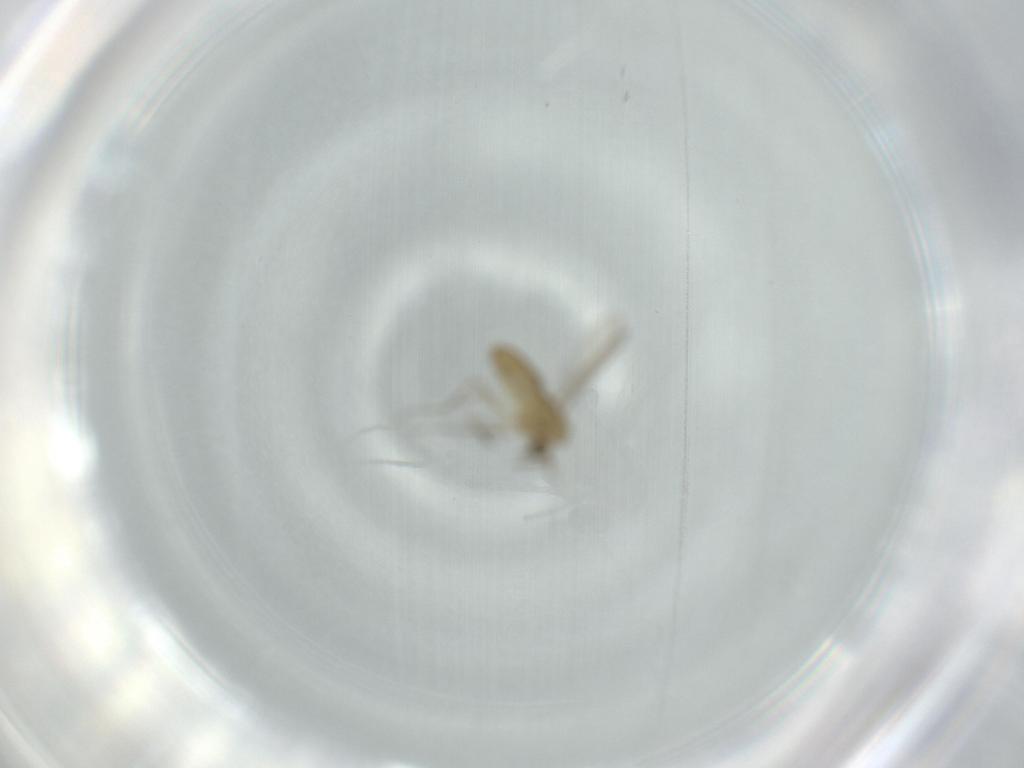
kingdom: Animalia
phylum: Arthropoda
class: Insecta
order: Diptera
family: Chironomidae
